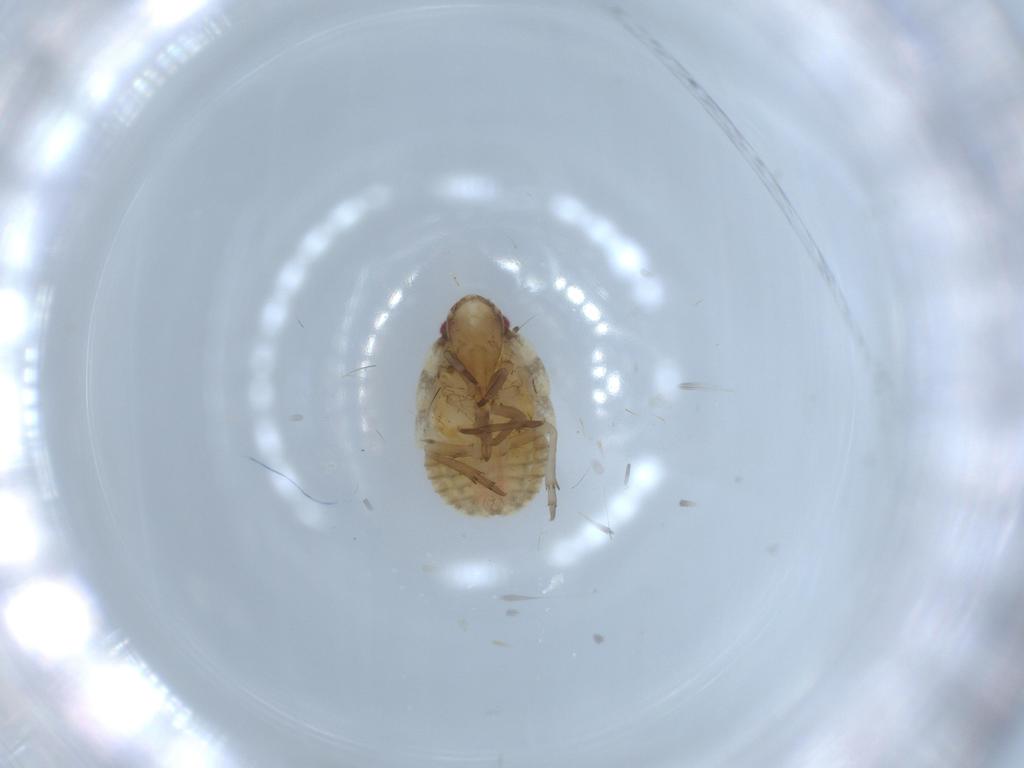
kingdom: Animalia
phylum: Arthropoda
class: Insecta
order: Hemiptera
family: Flatidae
